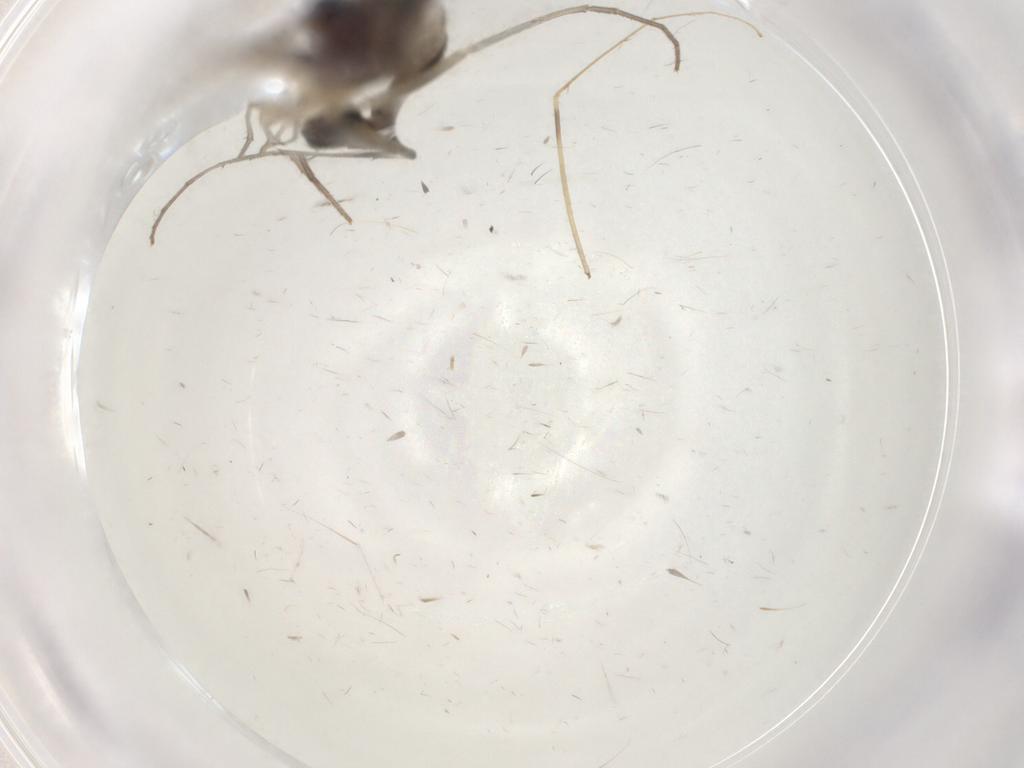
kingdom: Animalia
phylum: Arthropoda
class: Insecta
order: Diptera
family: Dolichopodidae
